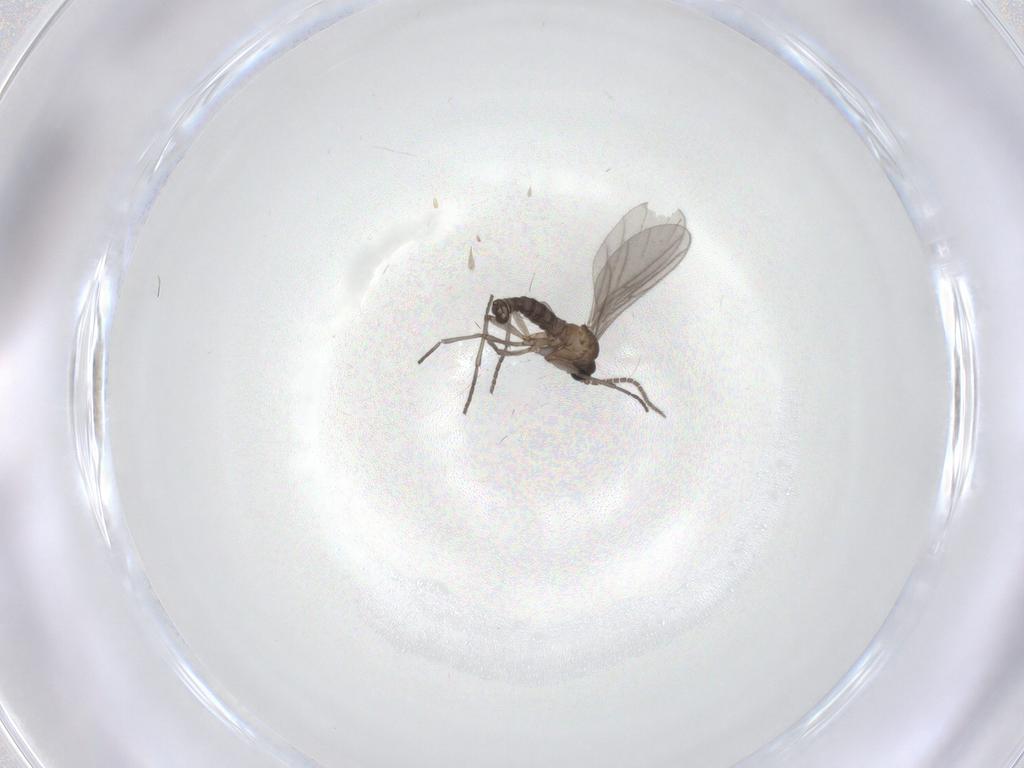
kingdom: Animalia
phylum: Arthropoda
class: Insecta
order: Diptera
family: Sciaridae
